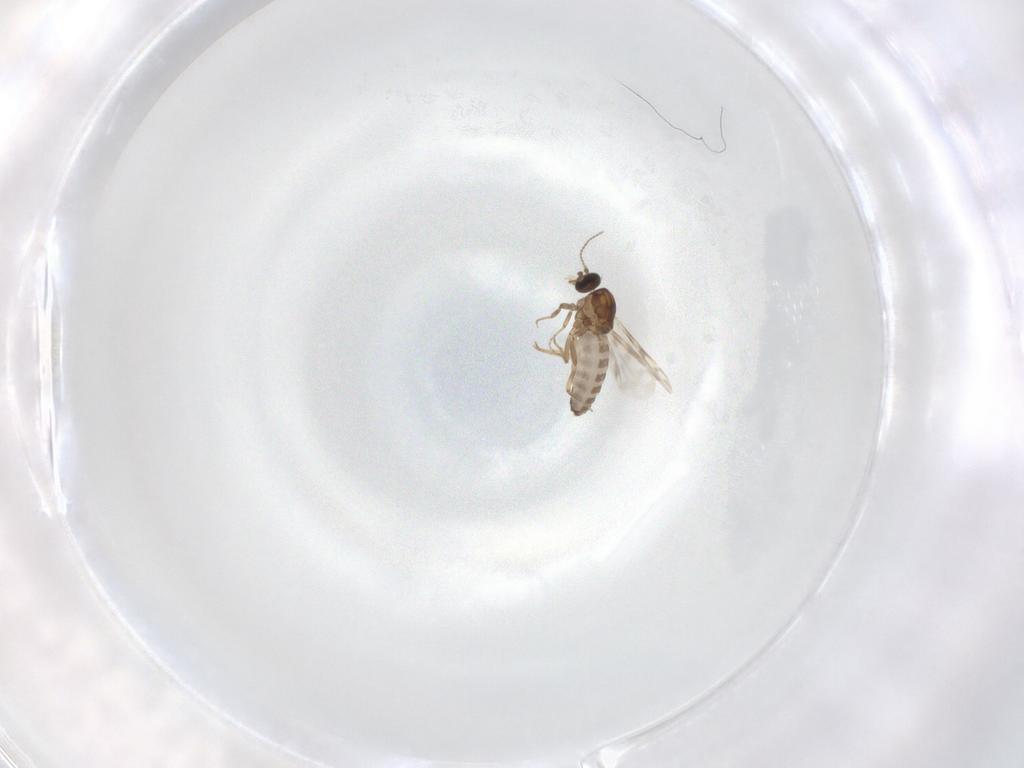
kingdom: Animalia
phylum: Arthropoda
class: Insecta
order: Diptera
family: Ceratopogonidae
